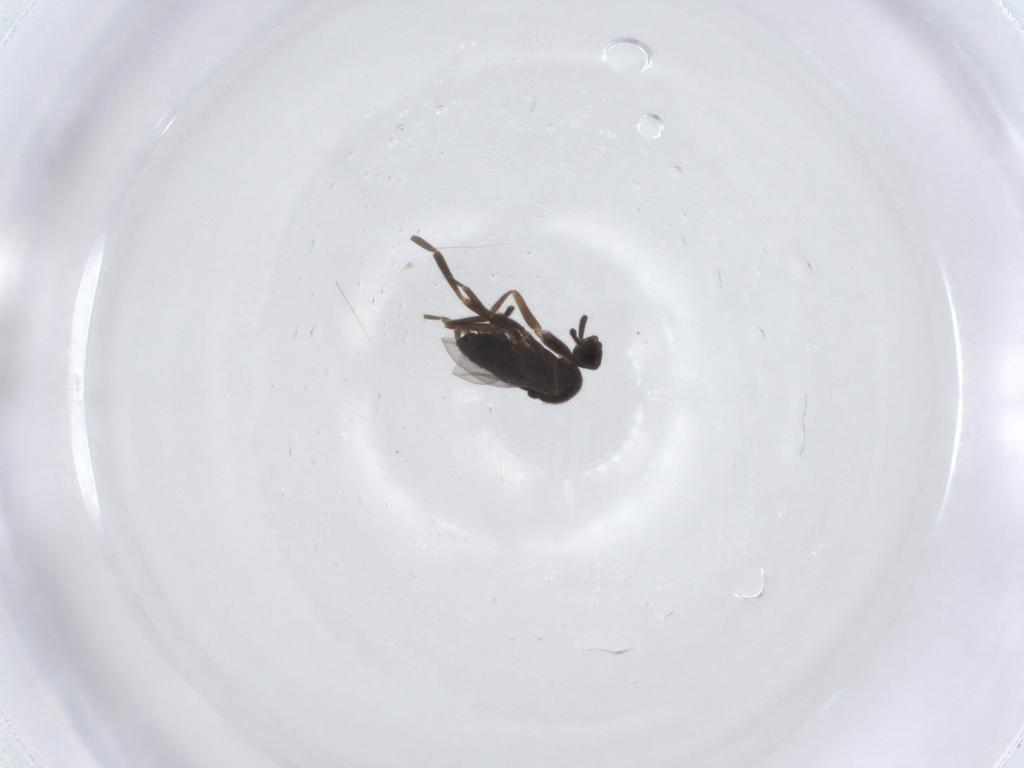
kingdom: Animalia
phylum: Arthropoda
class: Insecta
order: Diptera
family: Mycetophilidae
